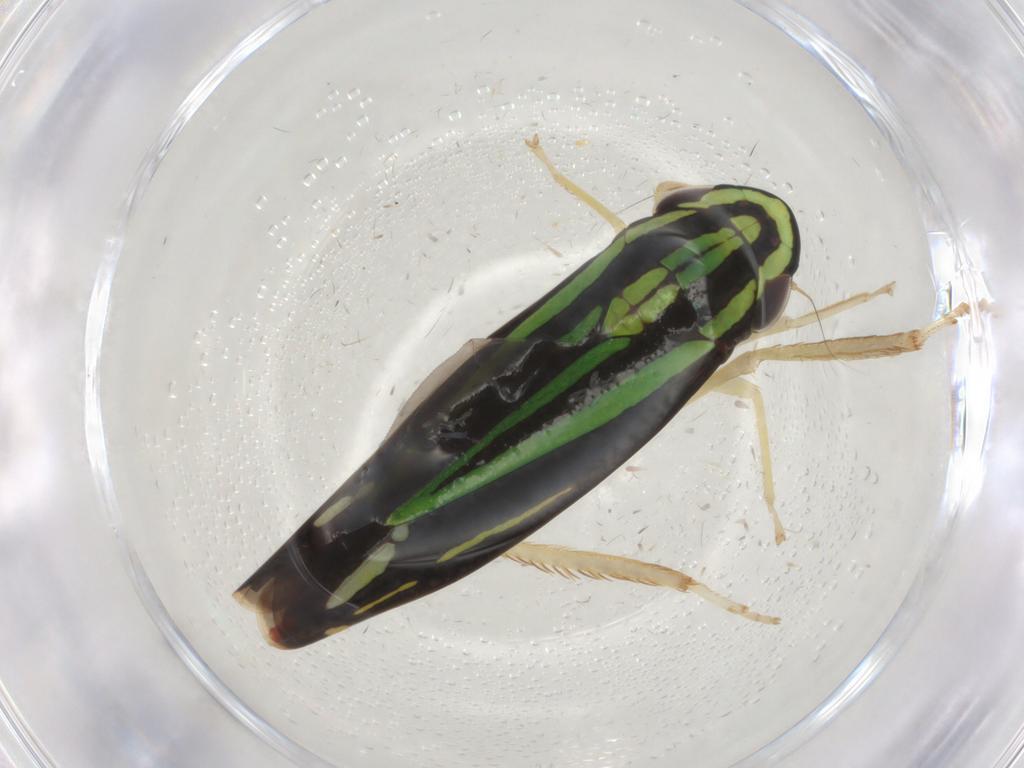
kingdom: Animalia
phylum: Arthropoda
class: Insecta
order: Hemiptera
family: Cicadellidae
